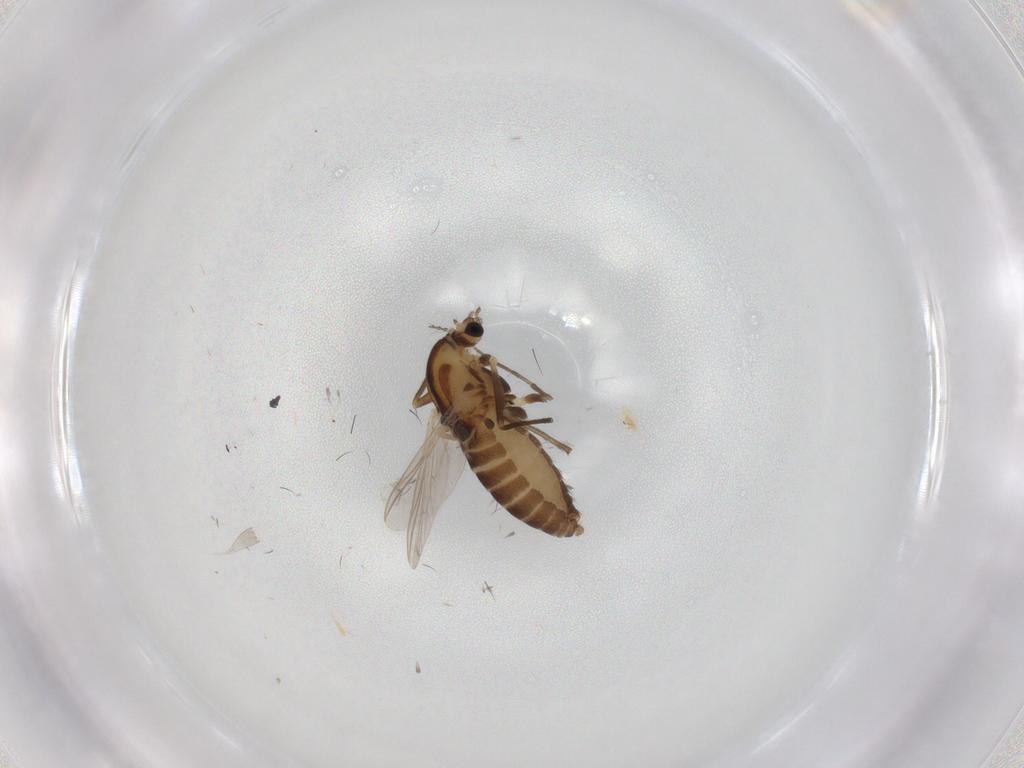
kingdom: Animalia
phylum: Arthropoda
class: Insecta
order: Diptera
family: Chironomidae
